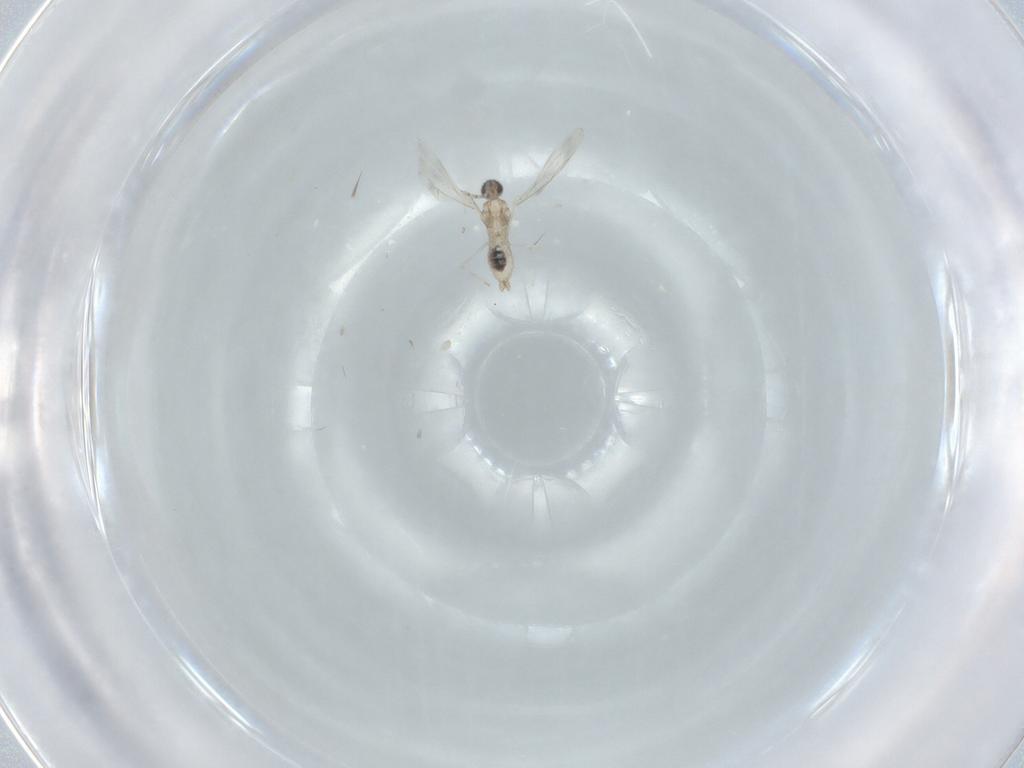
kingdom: Animalia
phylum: Arthropoda
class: Insecta
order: Diptera
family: Cecidomyiidae
